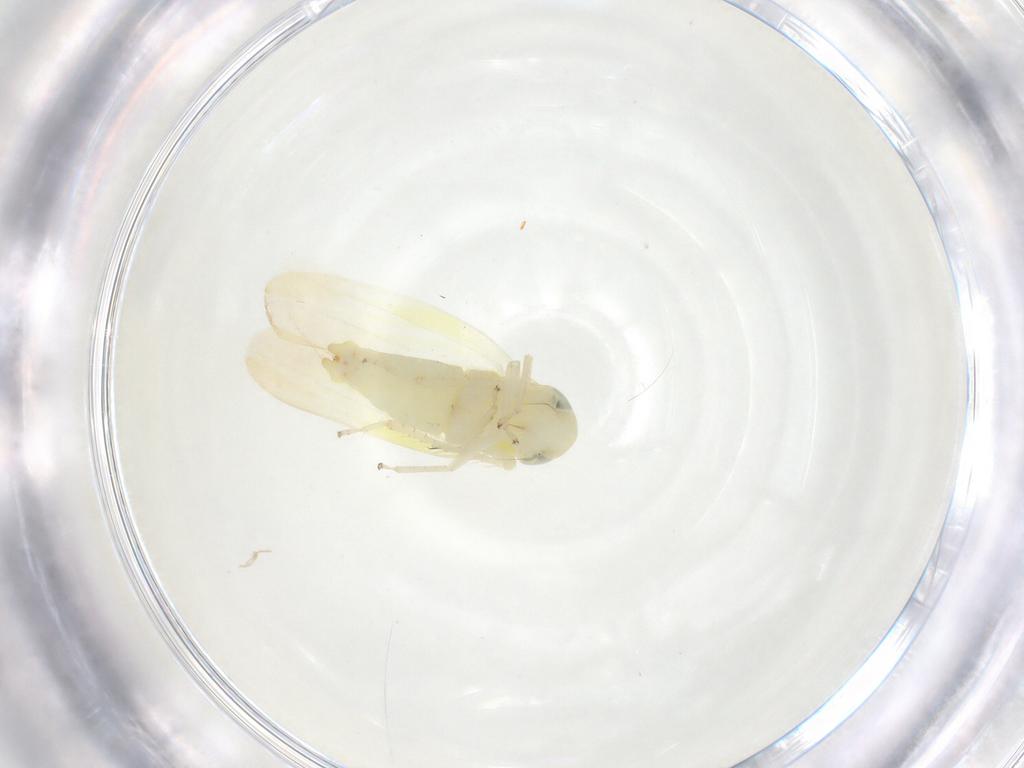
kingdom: Animalia
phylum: Arthropoda
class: Insecta
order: Hemiptera
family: Cicadellidae
